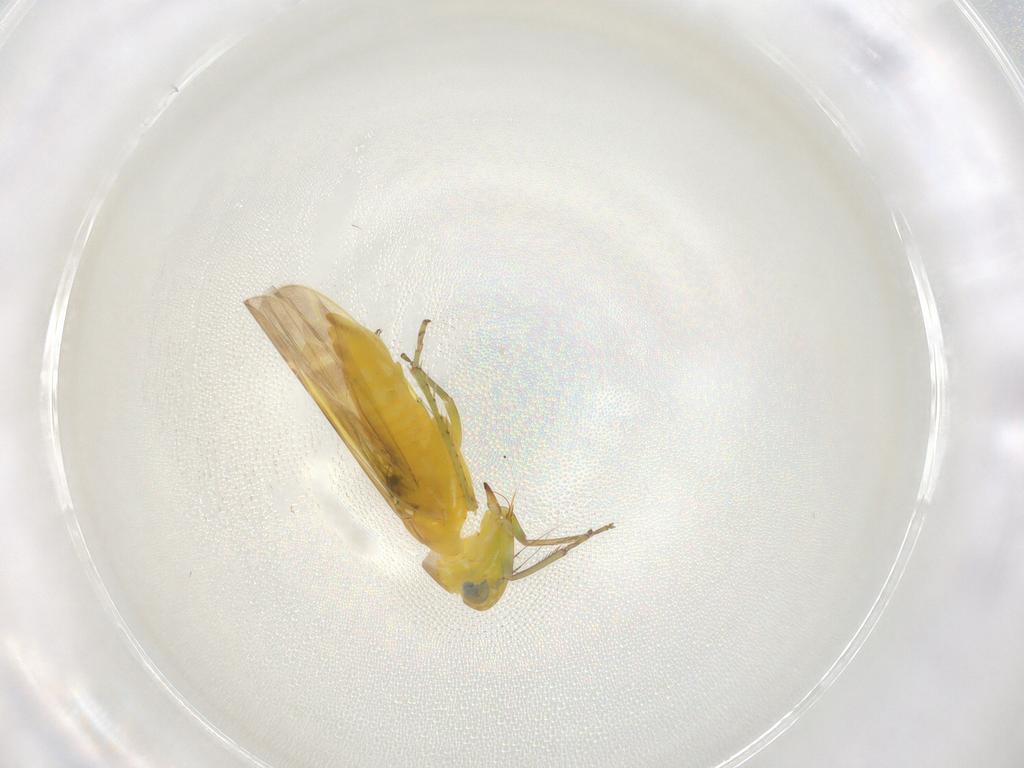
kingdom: Animalia
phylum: Arthropoda
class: Insecta
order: Hemiptera
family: Cicadellidae
